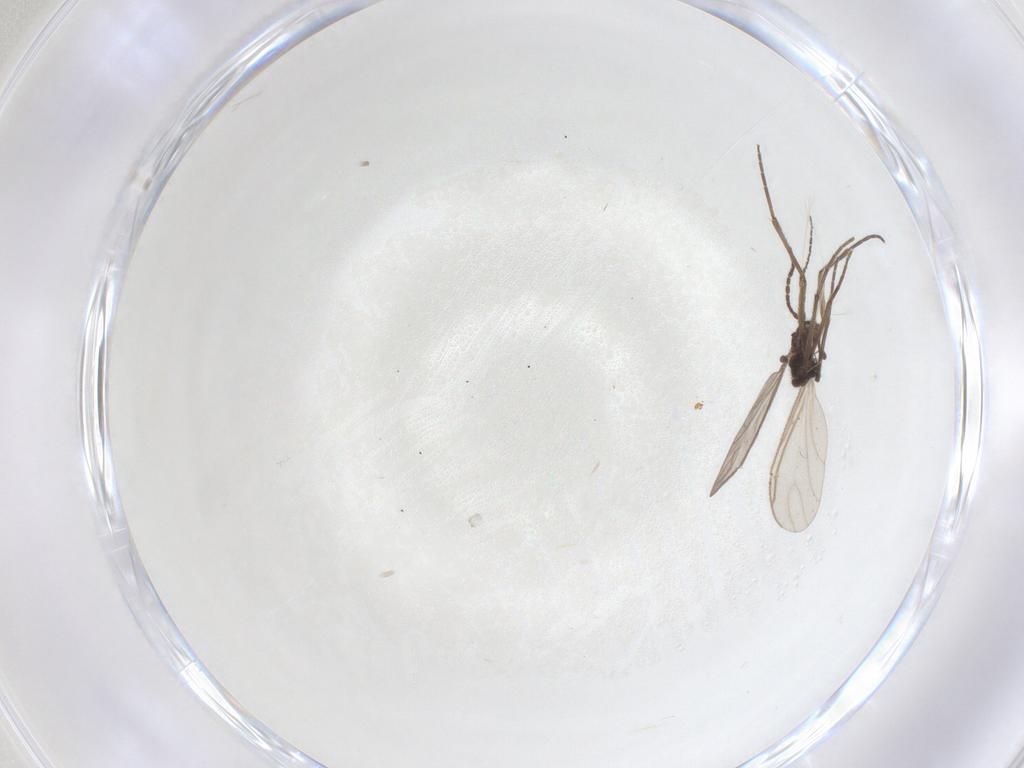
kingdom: Animalia
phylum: Arthropoda
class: Insecta
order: Diptera
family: Sciaridae
